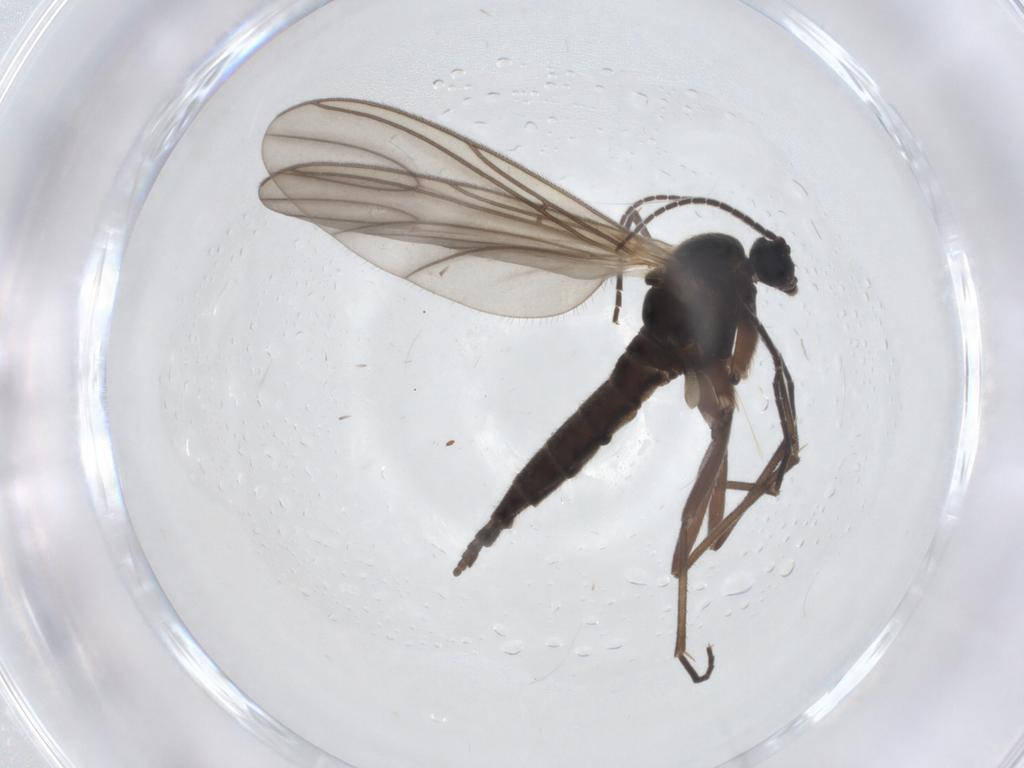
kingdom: Animalia
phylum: Arthropoda
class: Insecta
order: Diptera
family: Sciaridae
